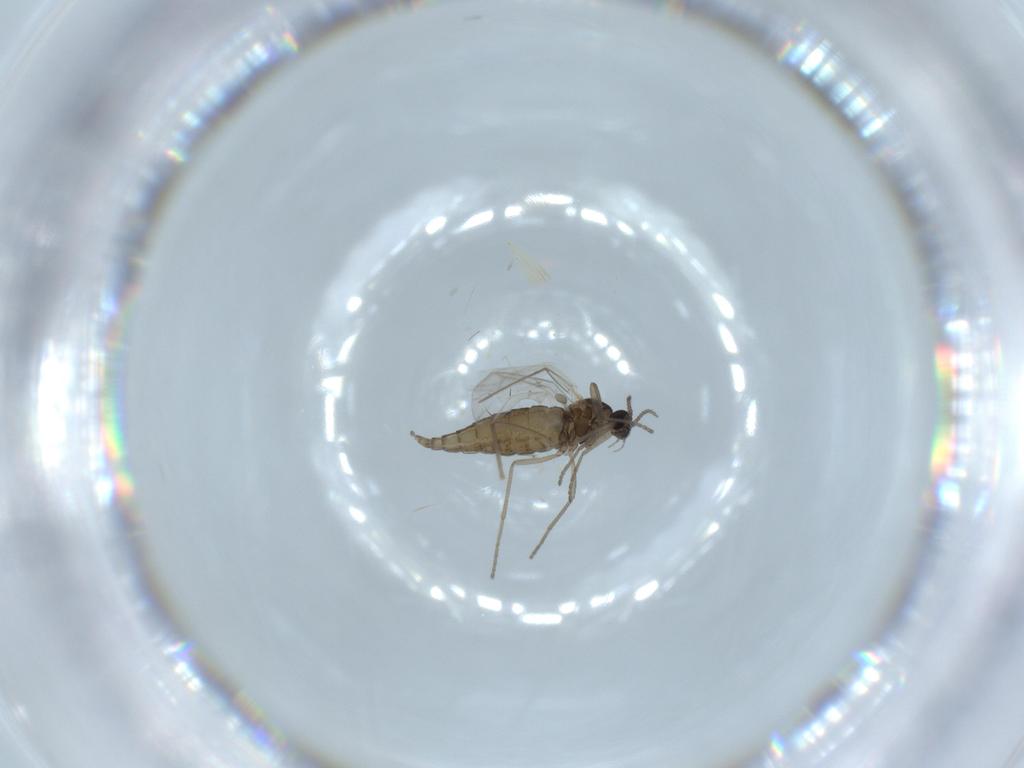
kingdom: Animalia
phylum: Arthropoda
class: Insecta
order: Diptera
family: Cecidomyiidae
